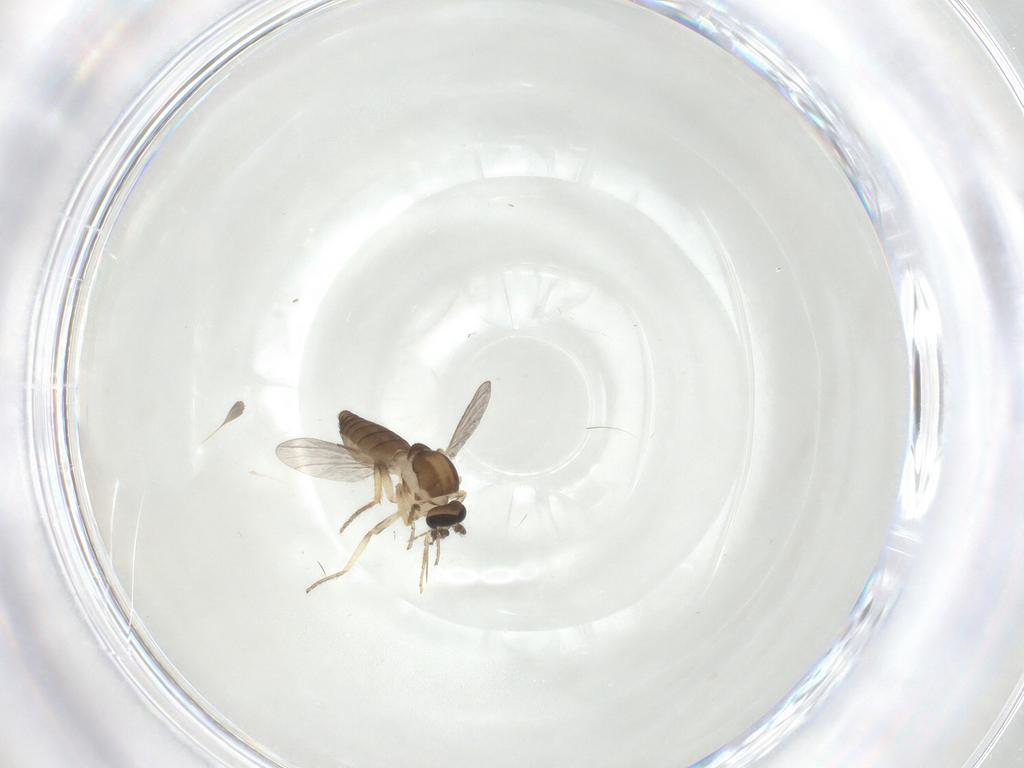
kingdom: Animalia
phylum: Arthropoda
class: Insecta
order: Diptera
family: Ceratopogonidae
